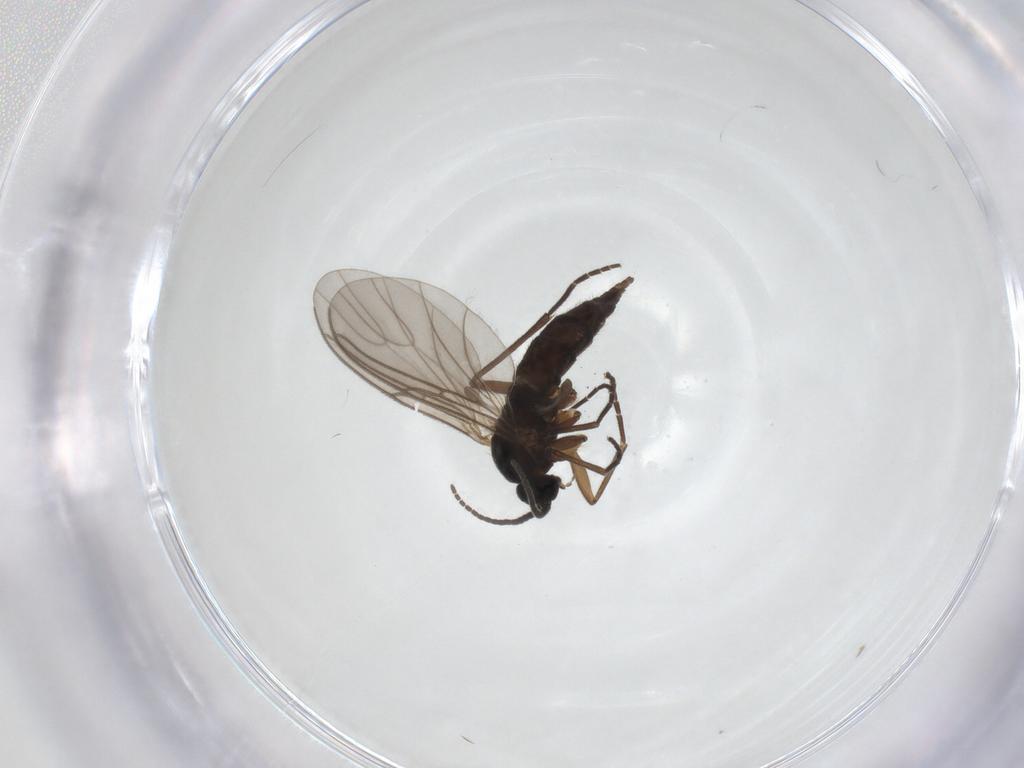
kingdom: Animalia
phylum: Arthropoda
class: Insecta
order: Diptera
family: Sciaridae
